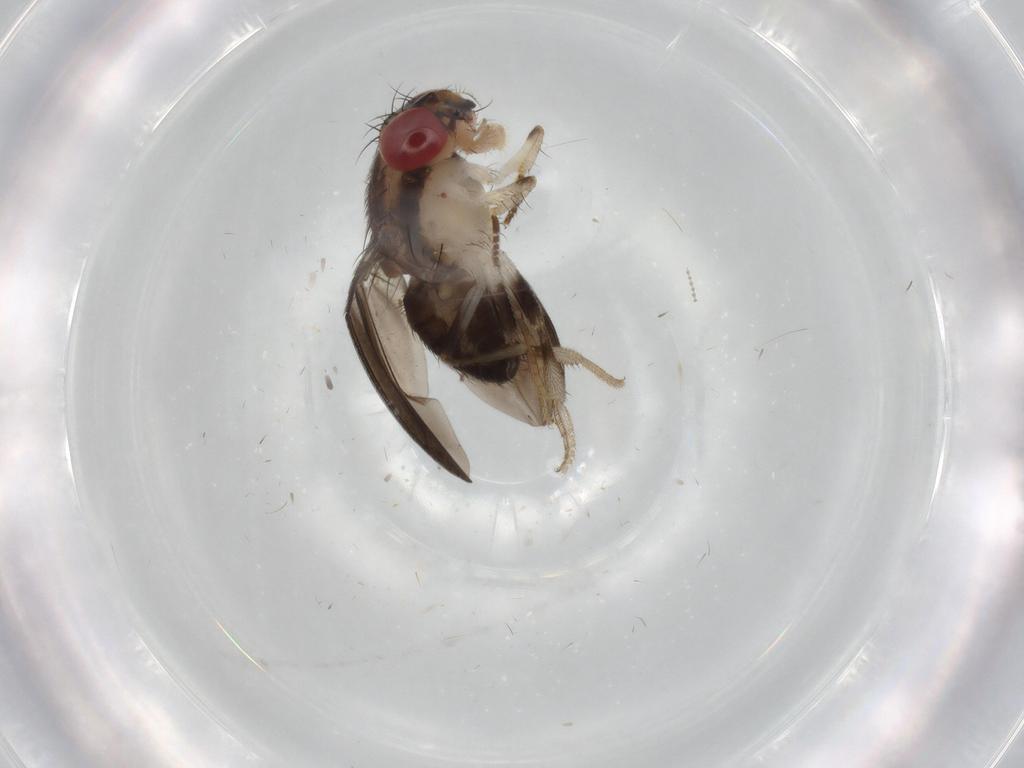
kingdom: Animalia
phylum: Arthropoda
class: Insecta
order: Diptera
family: Drosophilidae
